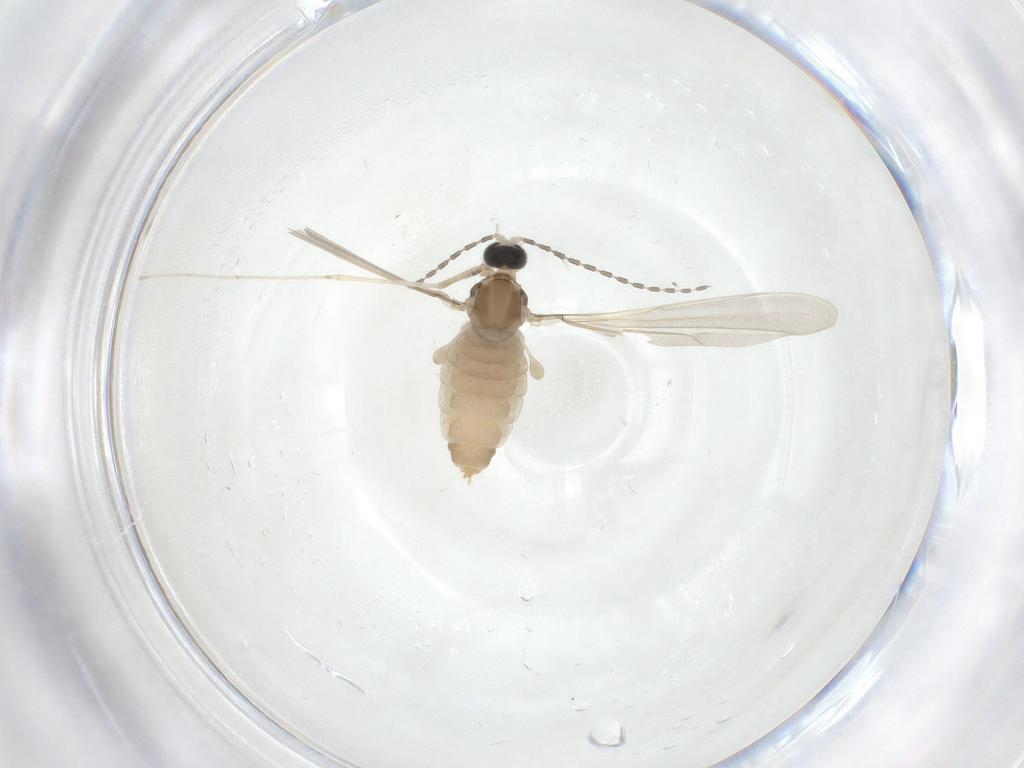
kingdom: Animalia
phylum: Arthropoda
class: Insecta
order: Diptera
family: Cecidomyiidae
